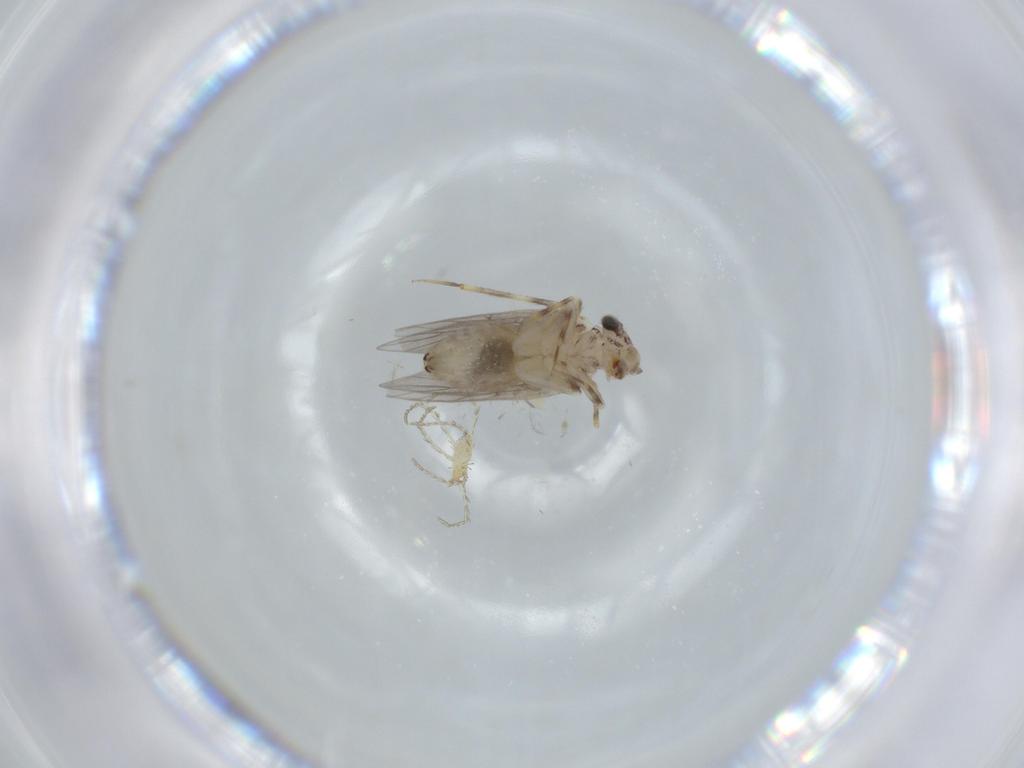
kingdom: Animalia
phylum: Arthropoda
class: Insecta
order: Psocodea
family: Lepidopsocidae
